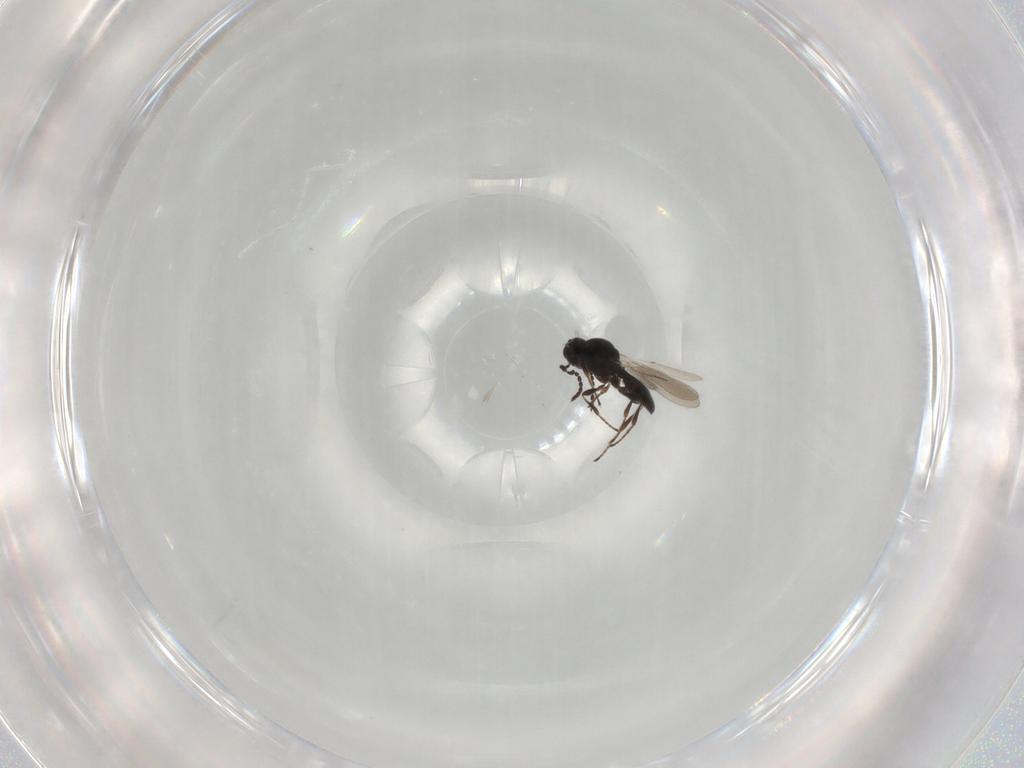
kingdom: Animalia
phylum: Arthropoda
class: Insecta
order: Hymenoptera
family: Platygastridae
